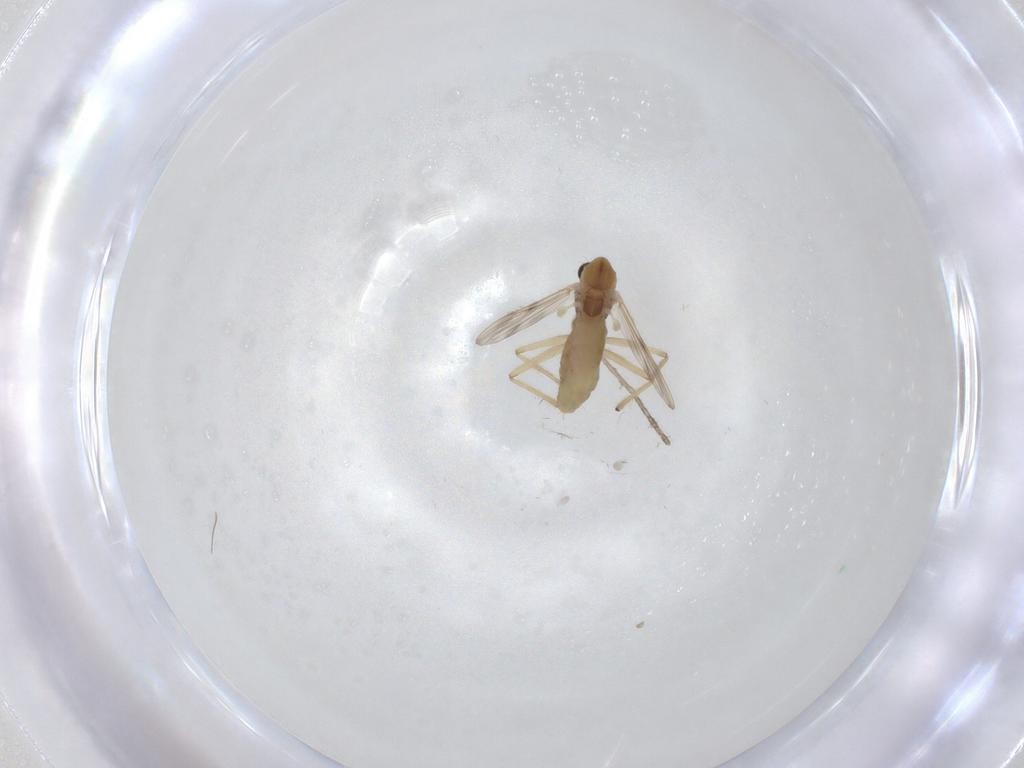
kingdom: Animalia
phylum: Arthropoda
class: Insecta
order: Diptera
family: Chironomidae
